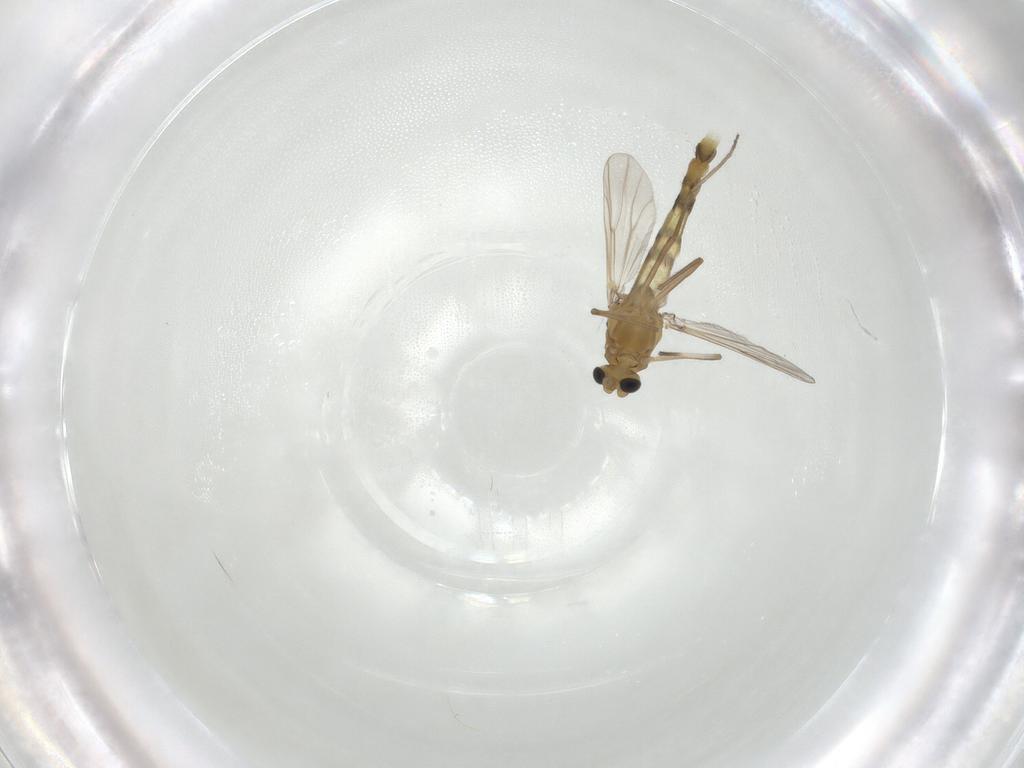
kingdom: Animalia
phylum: Arthropoda
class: Insecta
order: Diptera
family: Chironomidae
